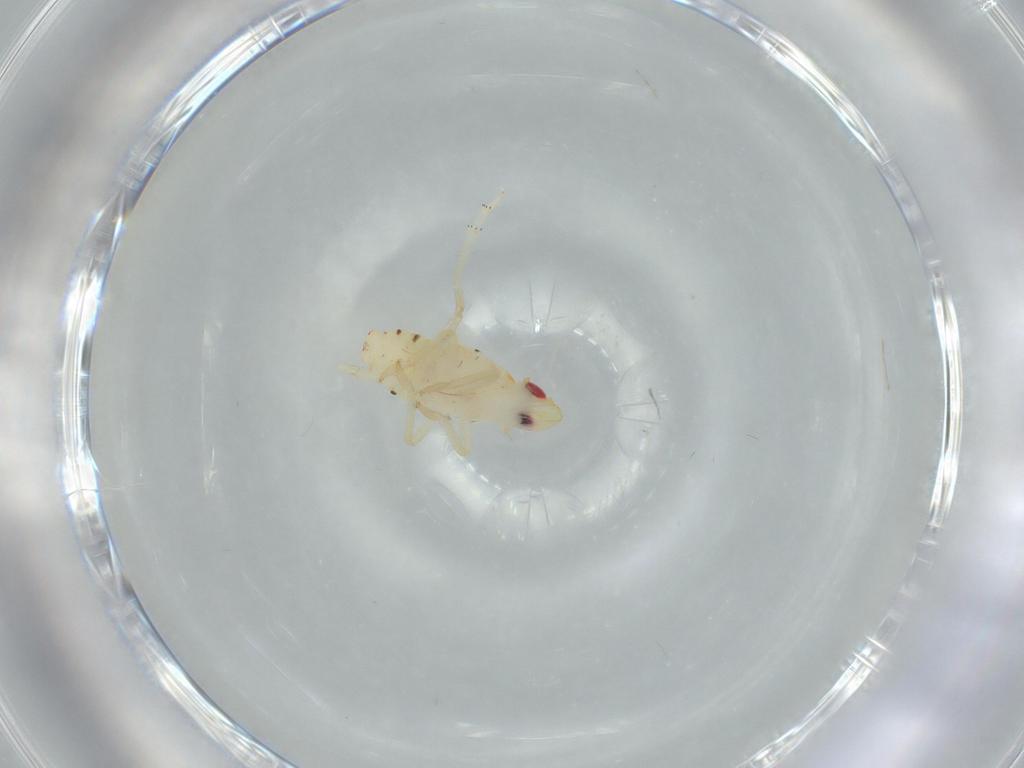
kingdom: Animalia
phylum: Arthropoda
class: Insecta
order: Hemiptera
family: Tropiduchidae
